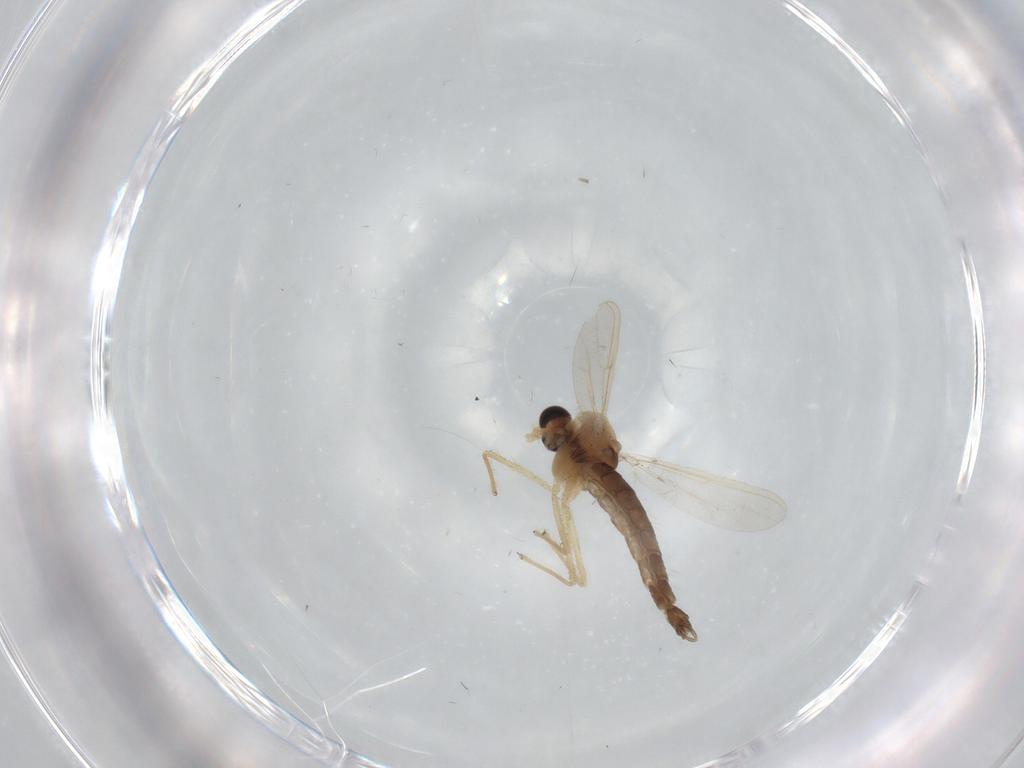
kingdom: Animalia
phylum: Arthropoda
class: Insecta
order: Diptera
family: Chironomidae
